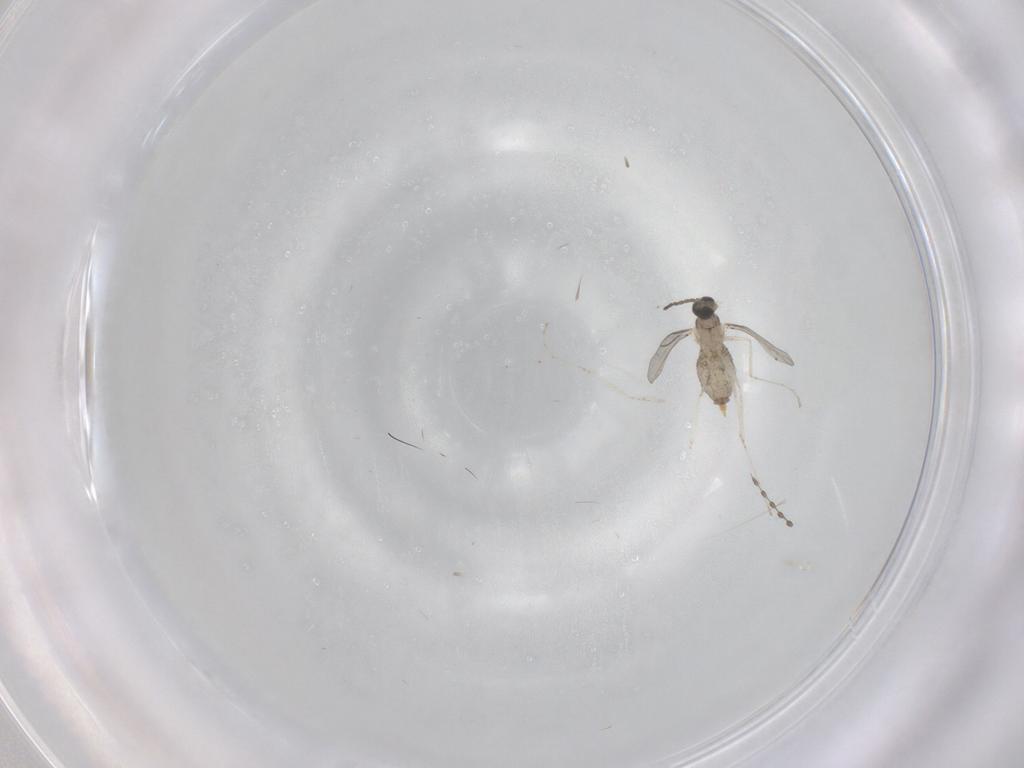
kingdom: Animalia
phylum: Arthropoda
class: Insecta
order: Diptera
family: Cecidomyiidae
